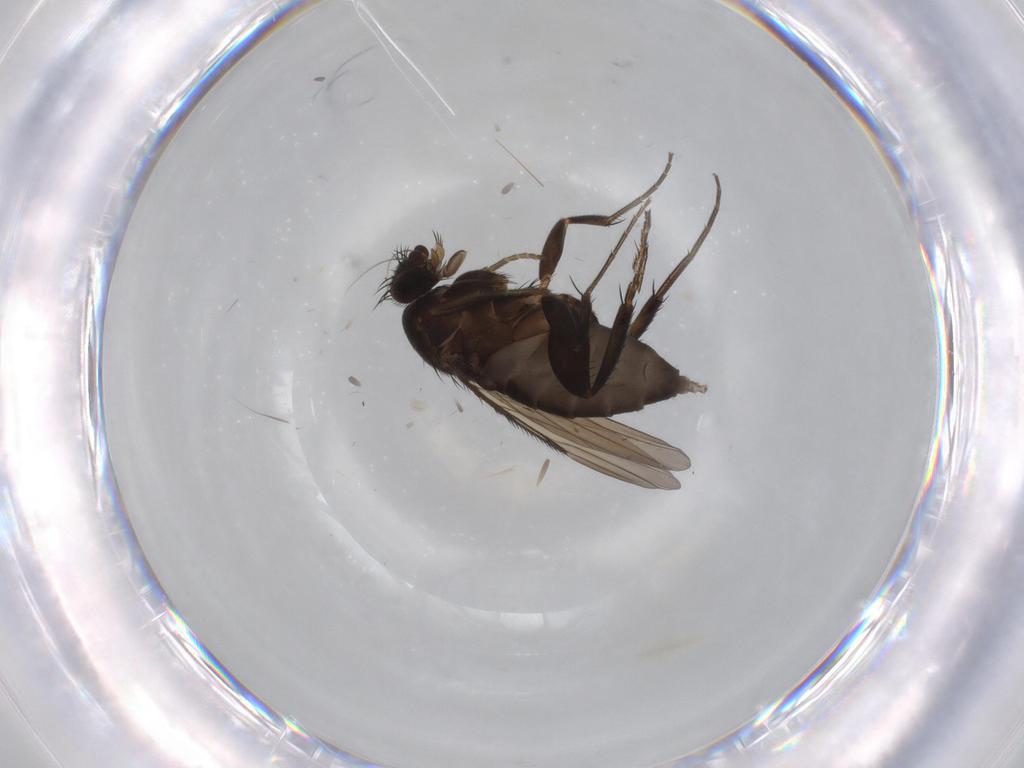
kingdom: Animalia
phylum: Arthropoda
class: Insecta
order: Diptera
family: Phoridae
